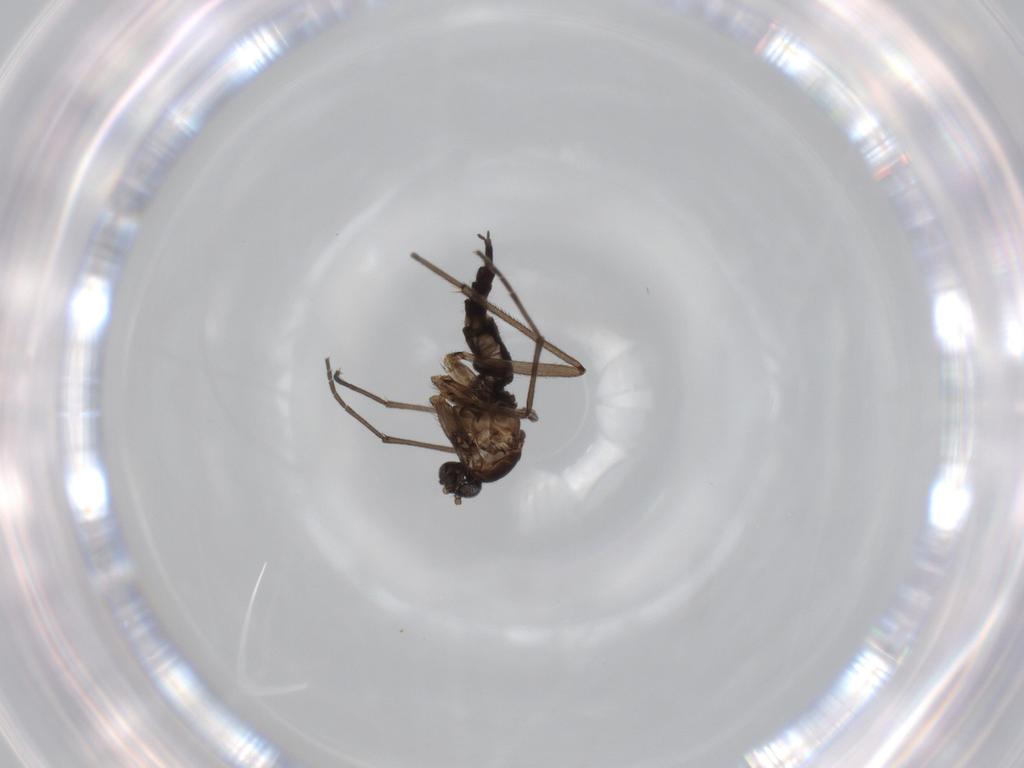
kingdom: Animalia
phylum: Arthropoda
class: Insecta
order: Diptera
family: Sciaridae
